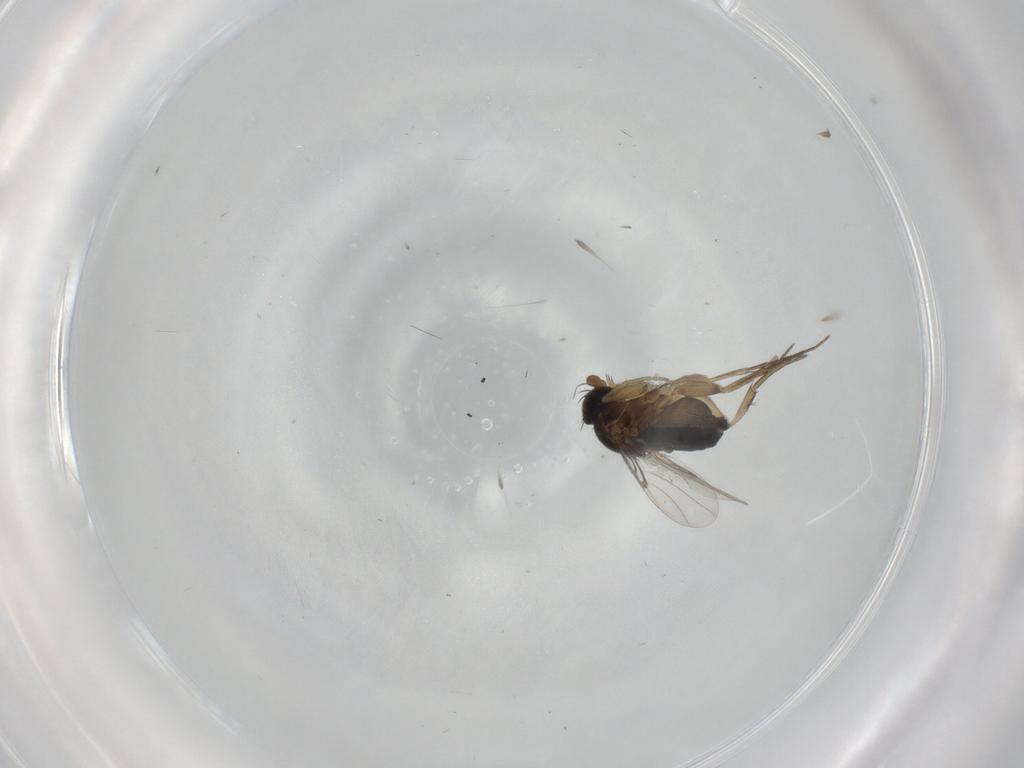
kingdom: Animalia
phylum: Arthropoda
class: Insecta
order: Diptera
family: Phoridae
